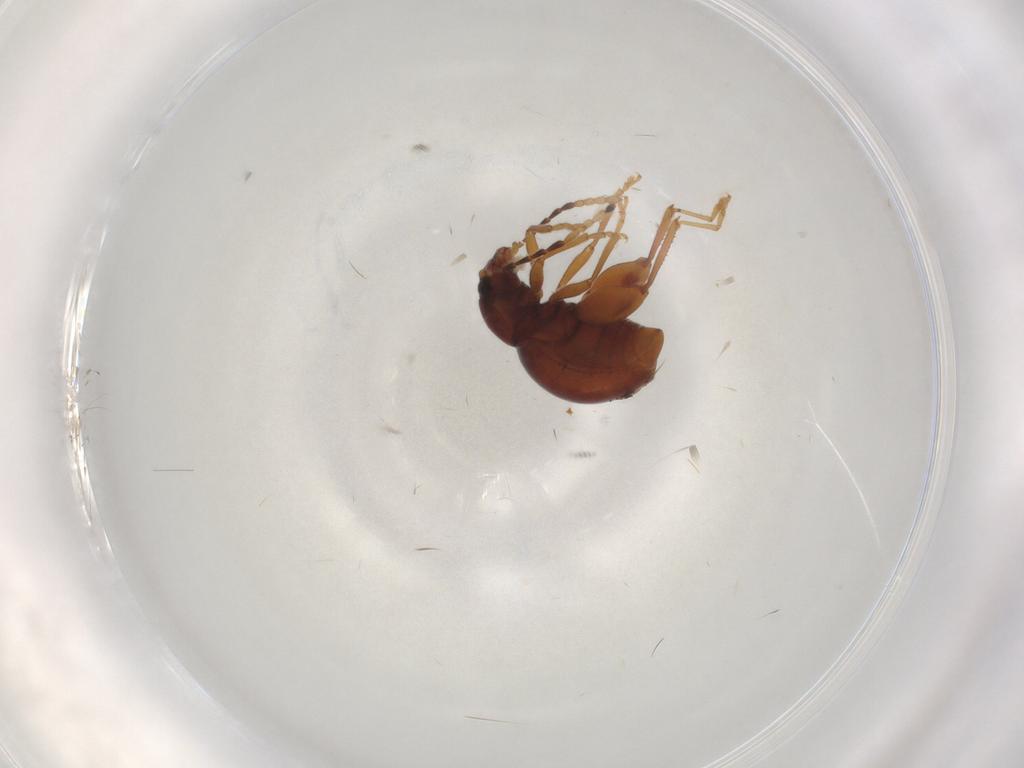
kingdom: Animalia
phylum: Arthropoda
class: Insecta
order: Coleoptera
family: Chrysomelidae
